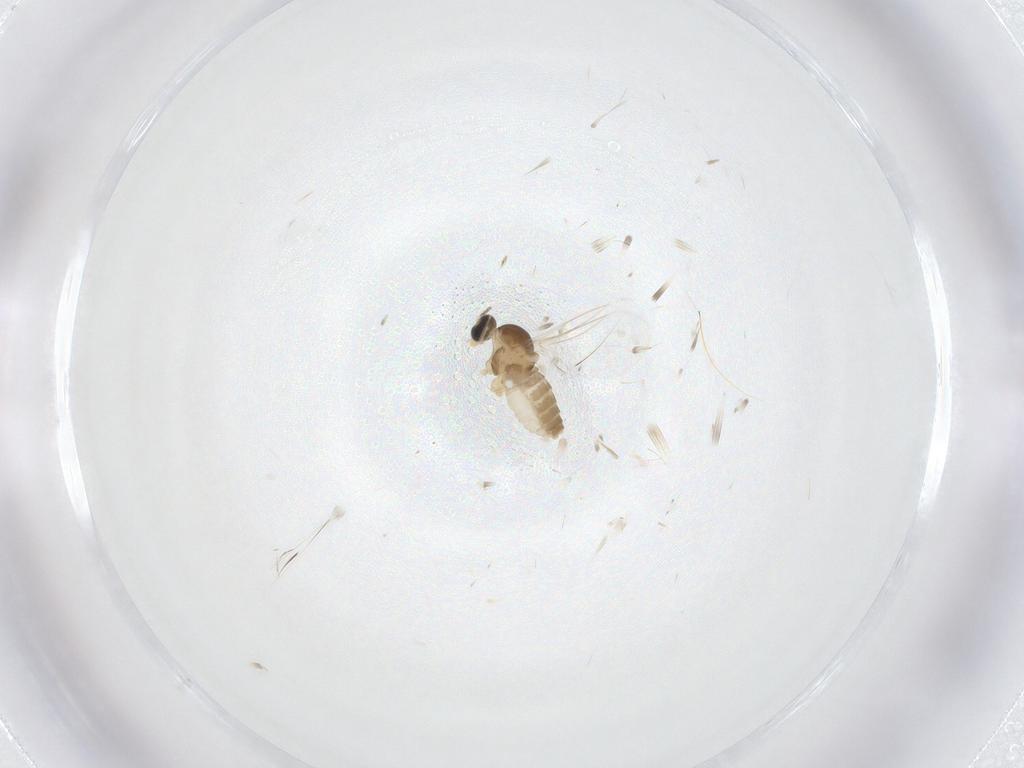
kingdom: Animalia
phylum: Arthropoda
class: Insecta
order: Diptera
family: Cecidomyiidae
